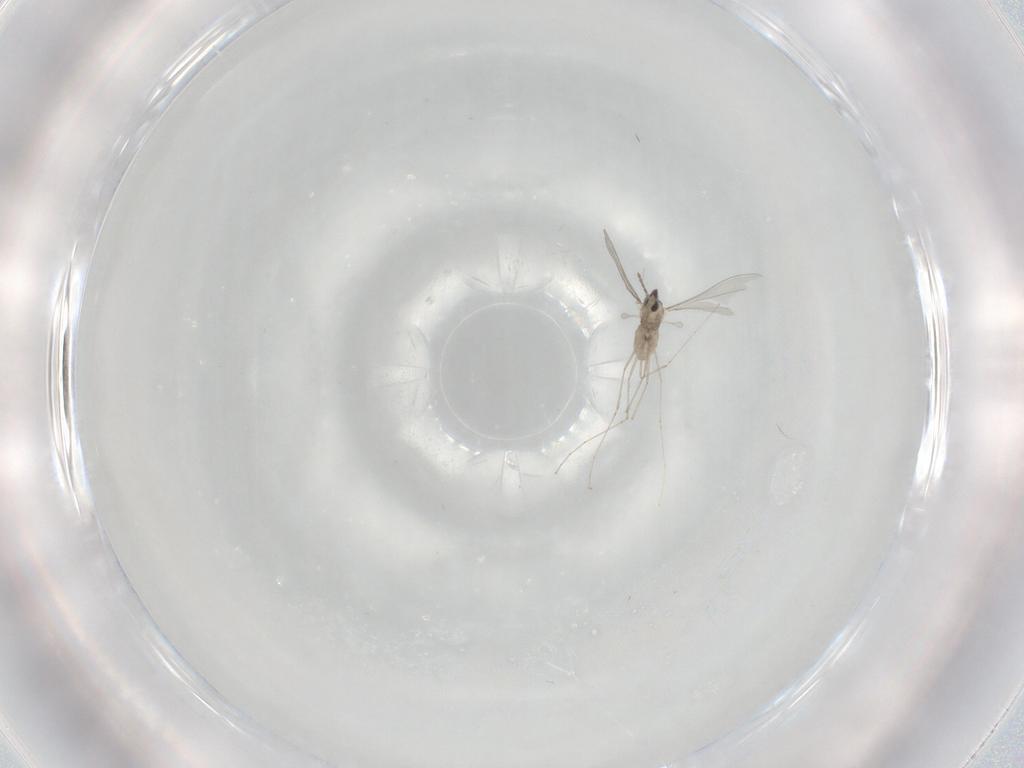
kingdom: Animalia
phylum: Arthropoda
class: Insecta
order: Diptera
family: Cecidomyiidae
